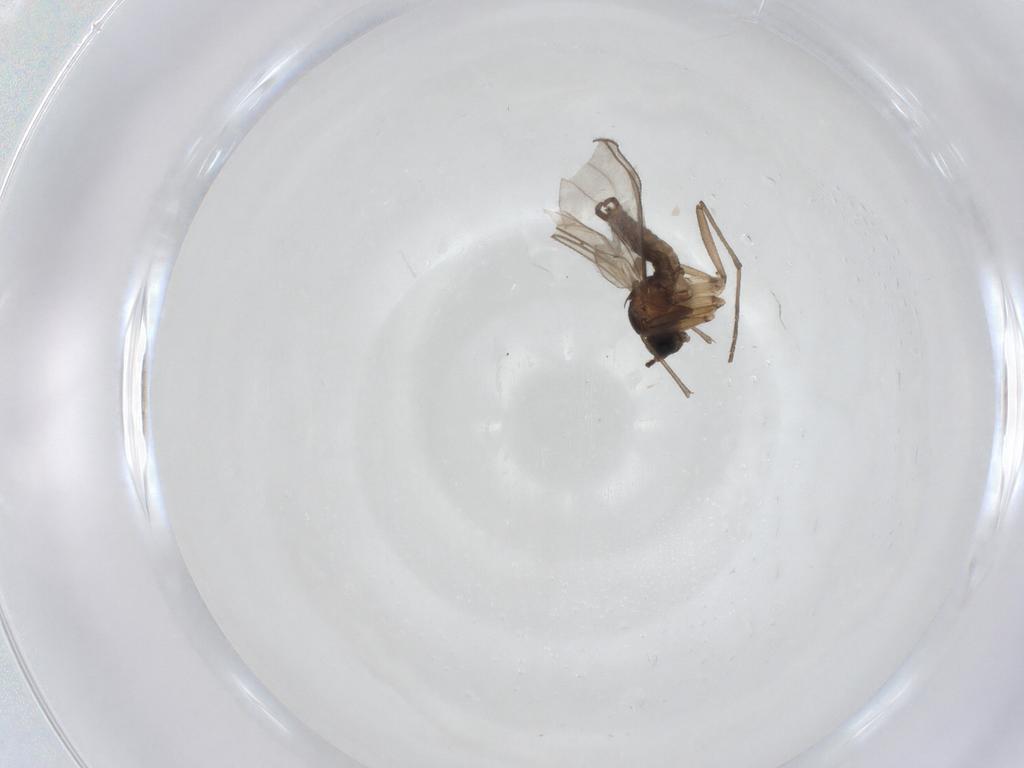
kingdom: Animalia
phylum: Arthropoda
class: Insecta
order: Diptera
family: Sciaridae
